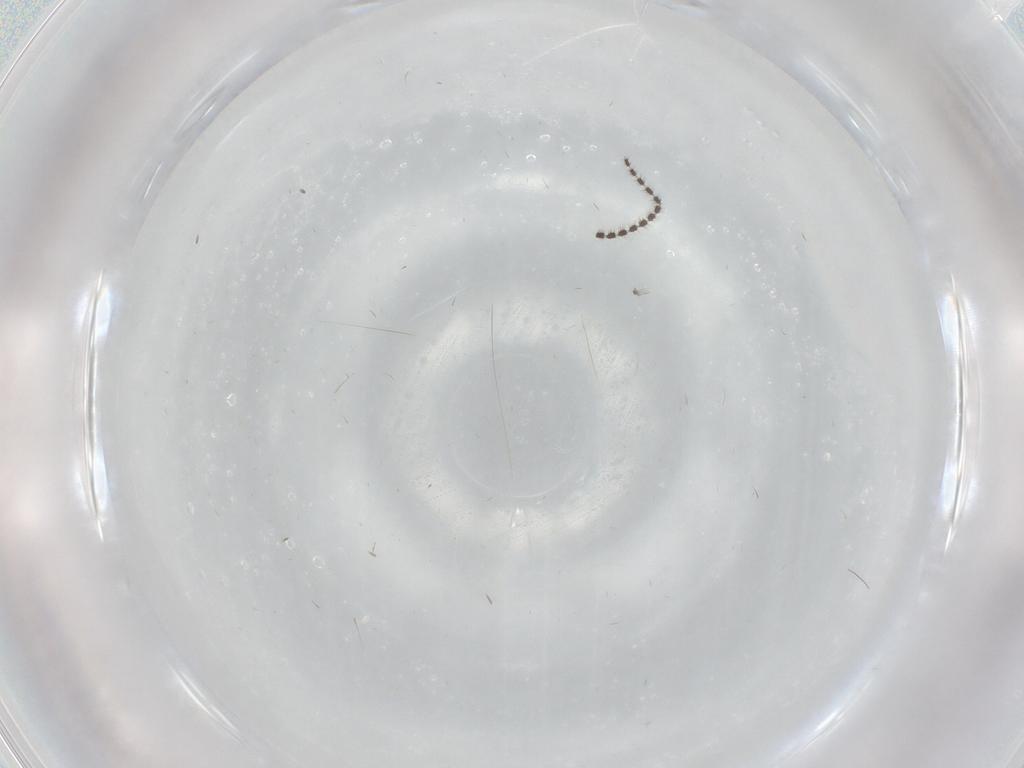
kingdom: Animalia
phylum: Arthropoda
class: Insecta
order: Diptera
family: Sciaridae
